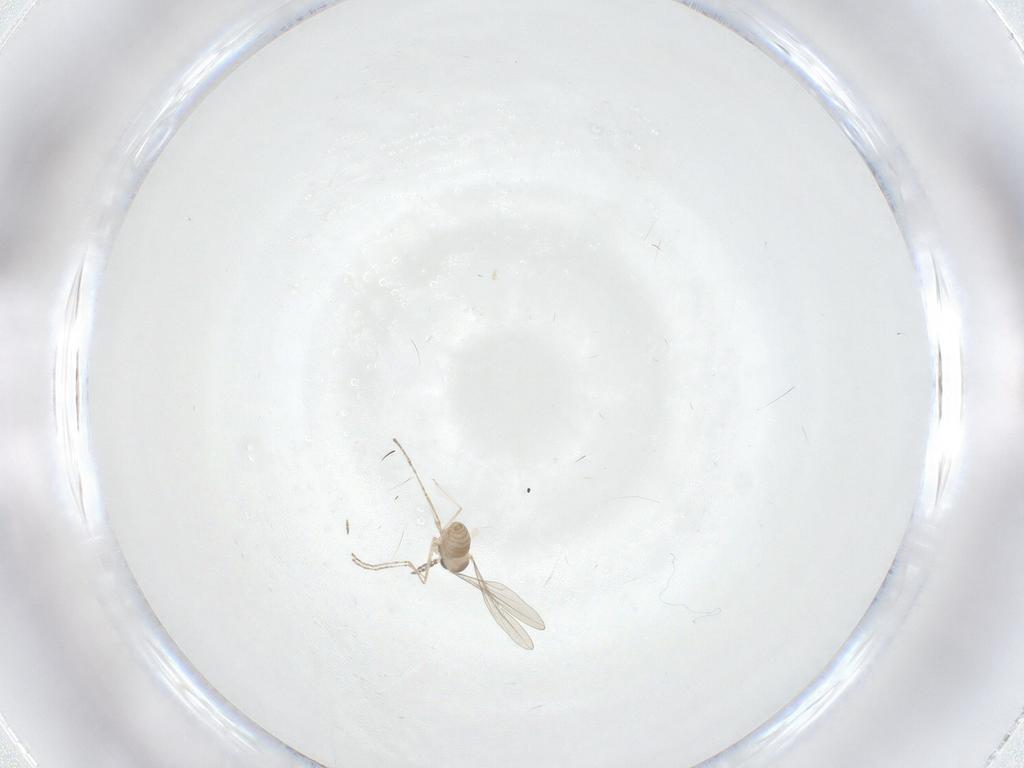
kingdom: Animalia
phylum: Arthropoda
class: Insecta
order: Diptera
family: Cecidomyiidae
